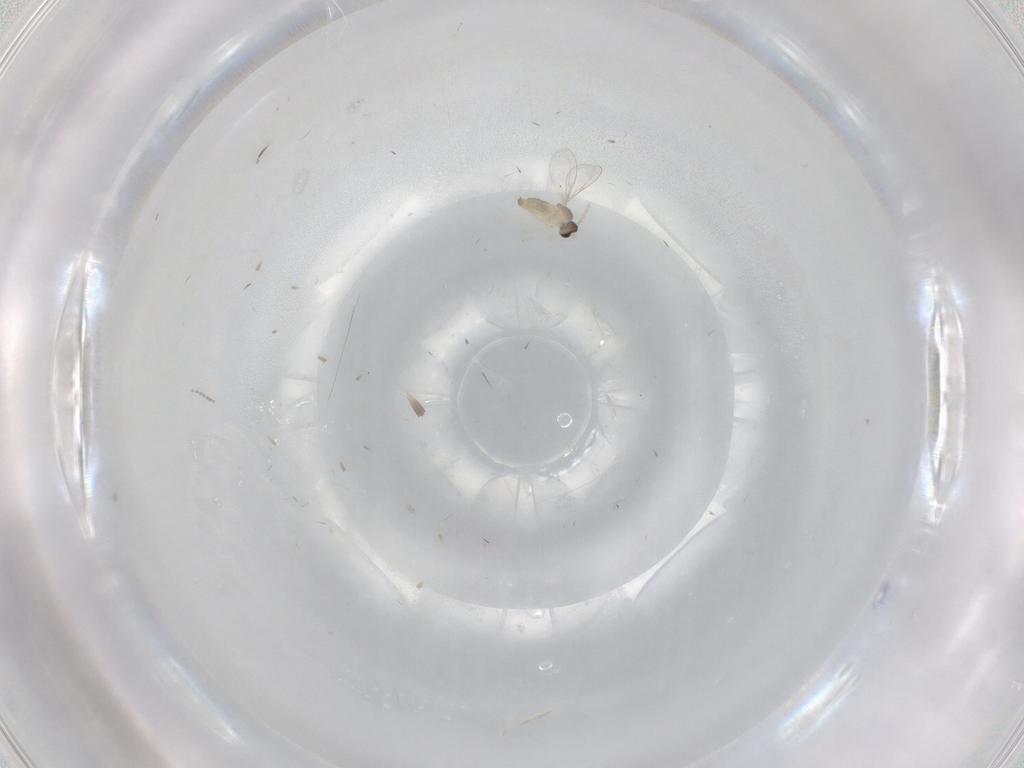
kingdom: Animalia
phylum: Arthropoda
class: Insecta
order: Diptera
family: Cecidomyiidae
